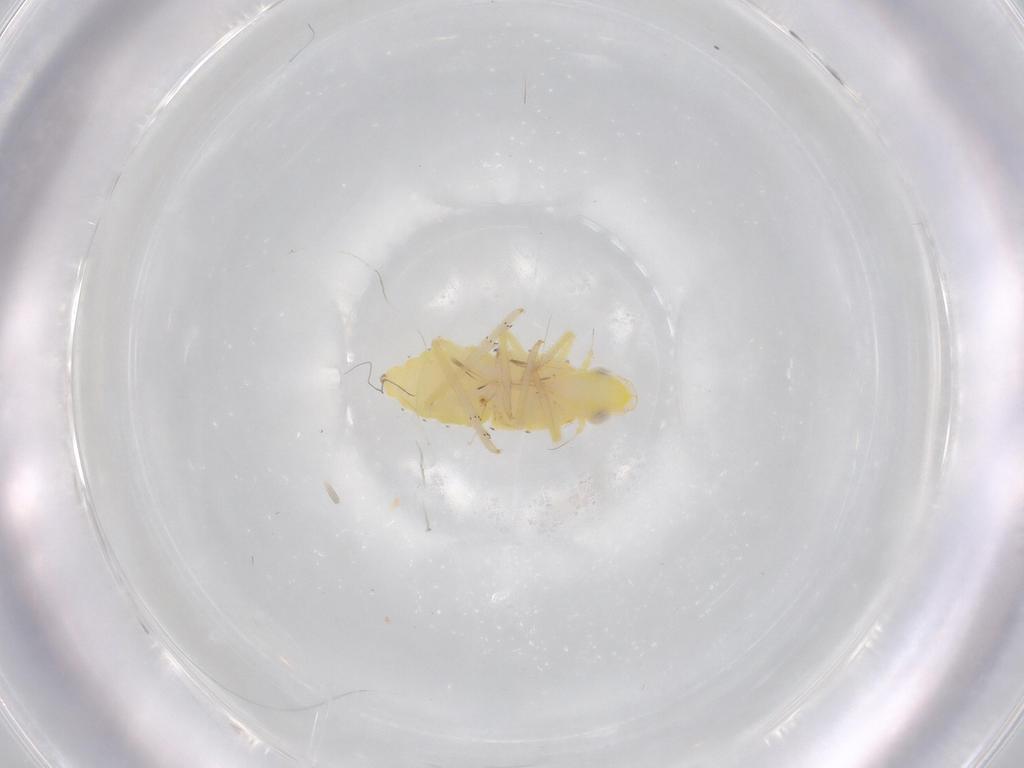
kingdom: Animalia
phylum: Arthropoda
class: Insecta
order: Hemiptera
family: Tropiduchidae
